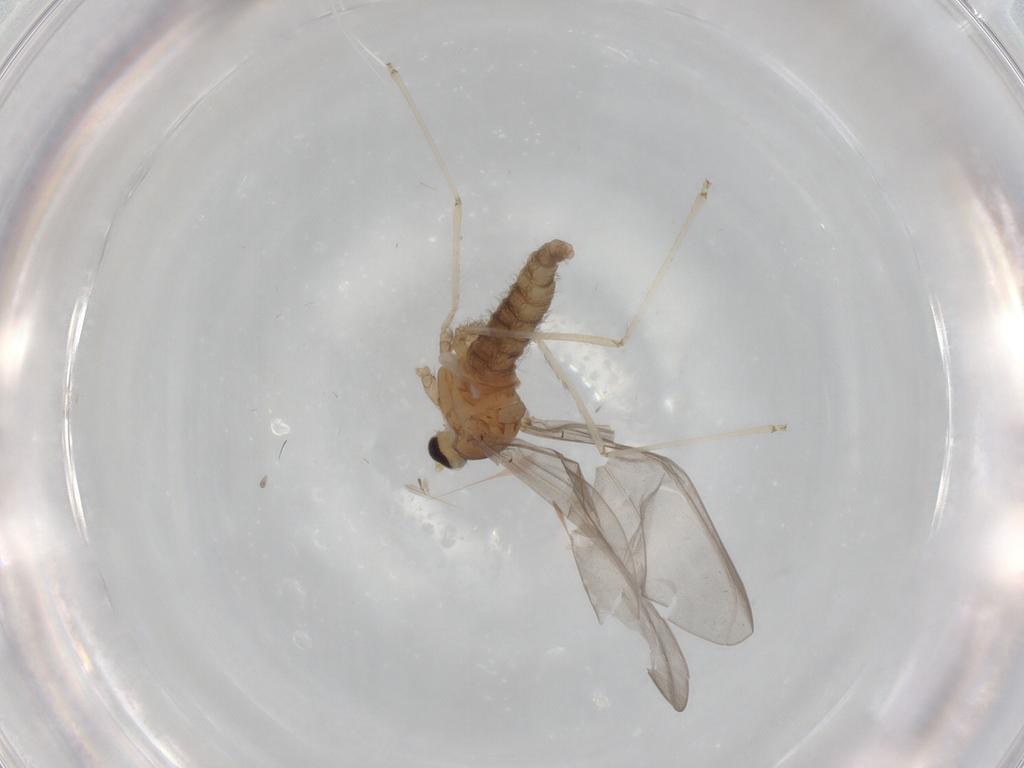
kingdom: Animalia
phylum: Arthropoda
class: Insecta
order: Diptera
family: Cecidomyiidae
